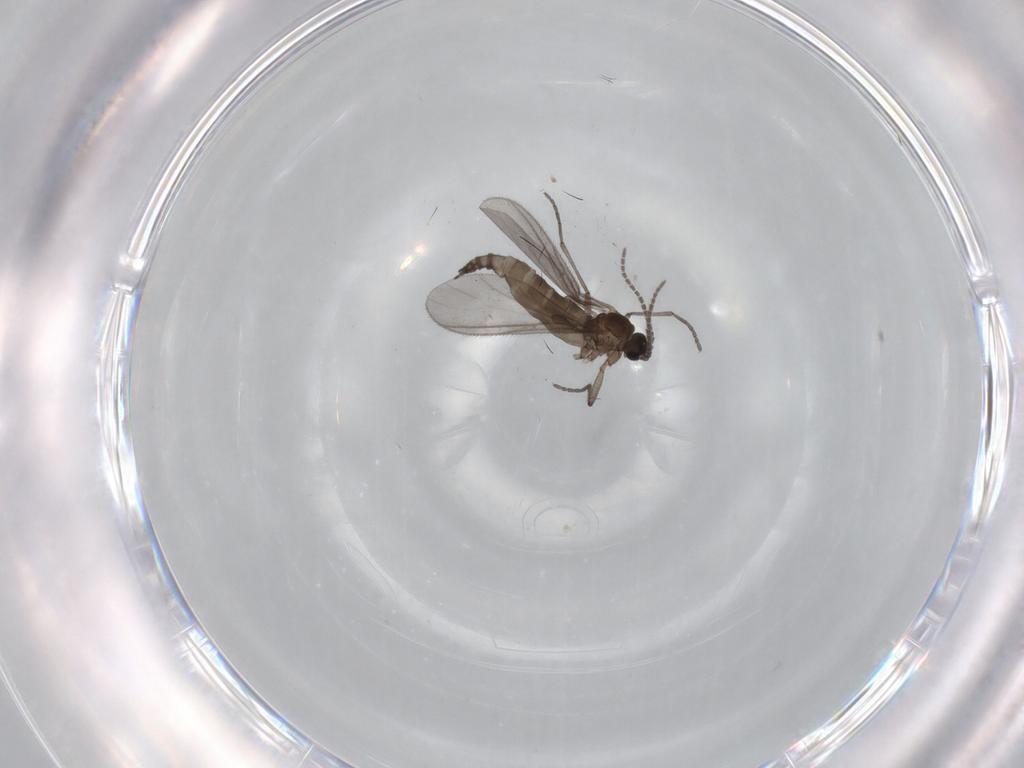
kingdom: Animalia
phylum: Arthropoda
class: Insecta
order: Diptera
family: Sciaridae
